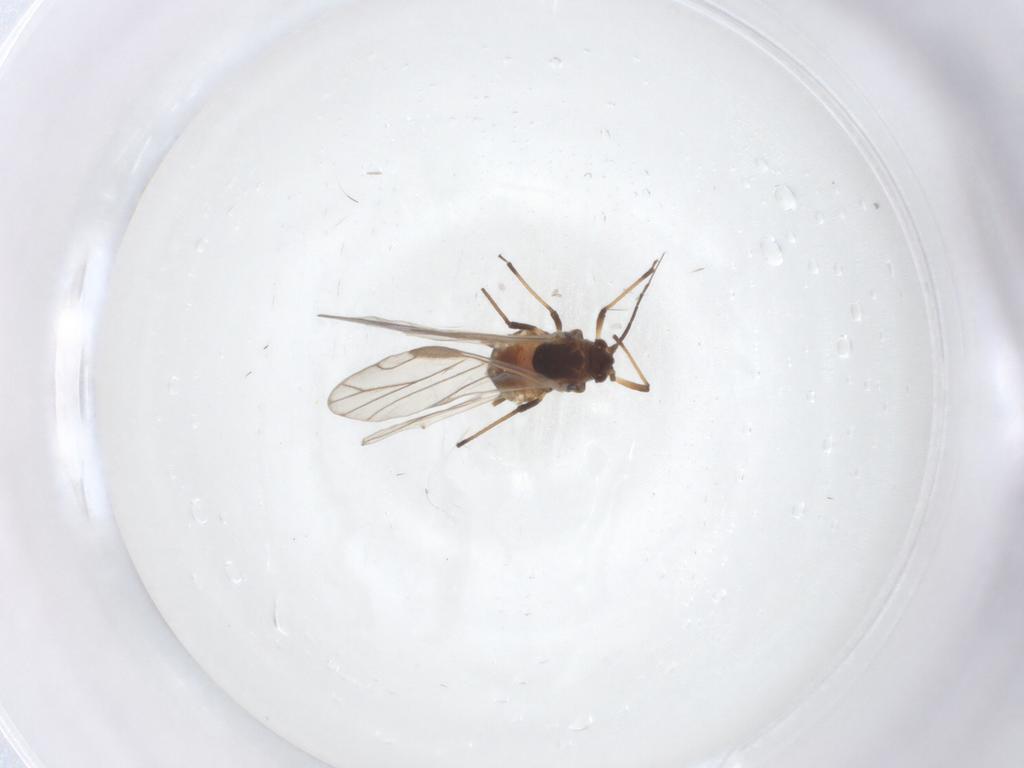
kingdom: Animalia
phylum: Arthropoda
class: Insecta
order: Hemiptera
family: Aphididae
